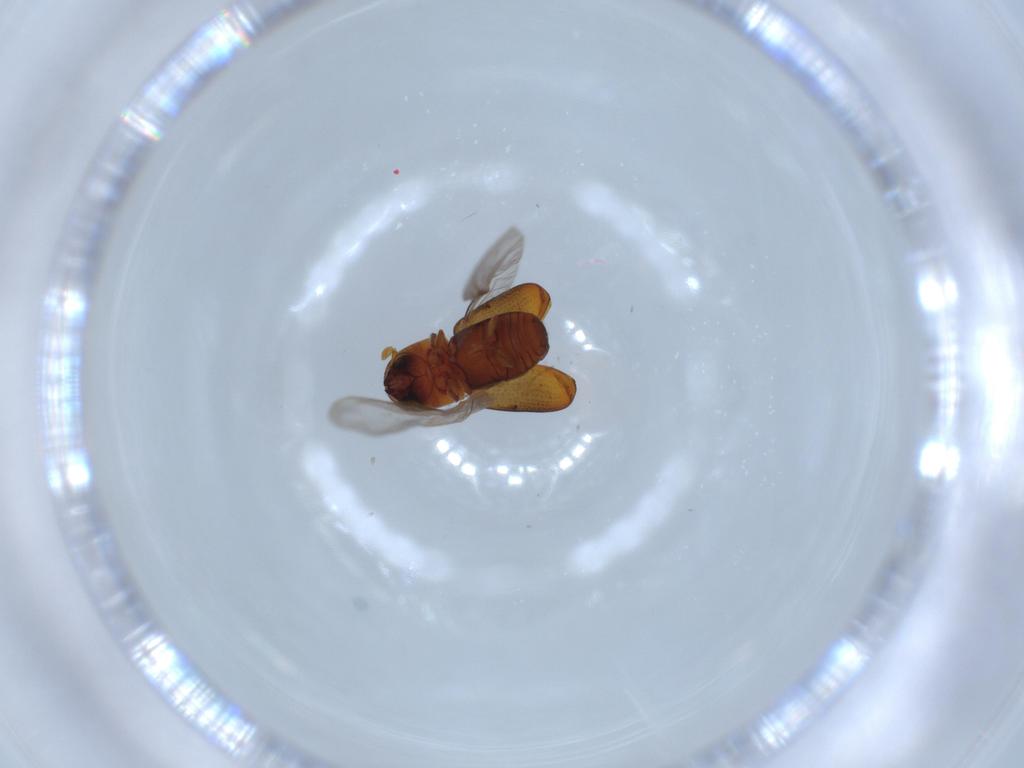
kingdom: Animalia
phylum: Arthropoda
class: Insecta
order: Coleoptera
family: Curculionidae
